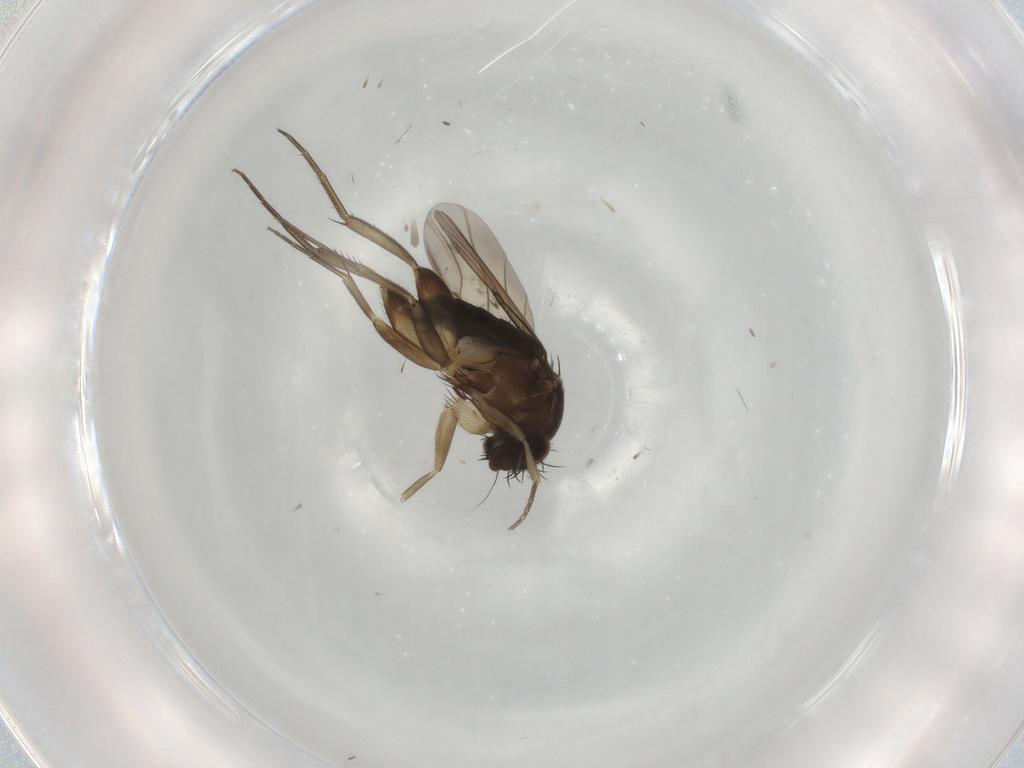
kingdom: Animalia
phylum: Arthropoda
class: Insecta
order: Diptera
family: Phoridae
